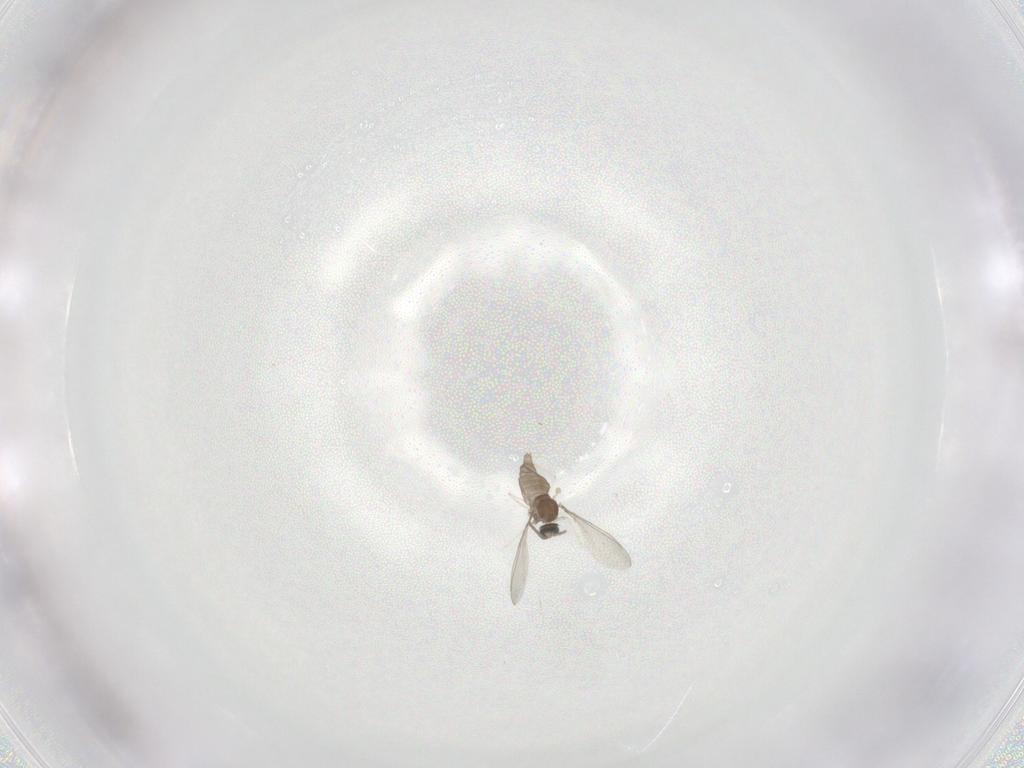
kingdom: Animalia
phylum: Arthropoda
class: Insecta
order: Diptera
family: Cecidomyiidae
